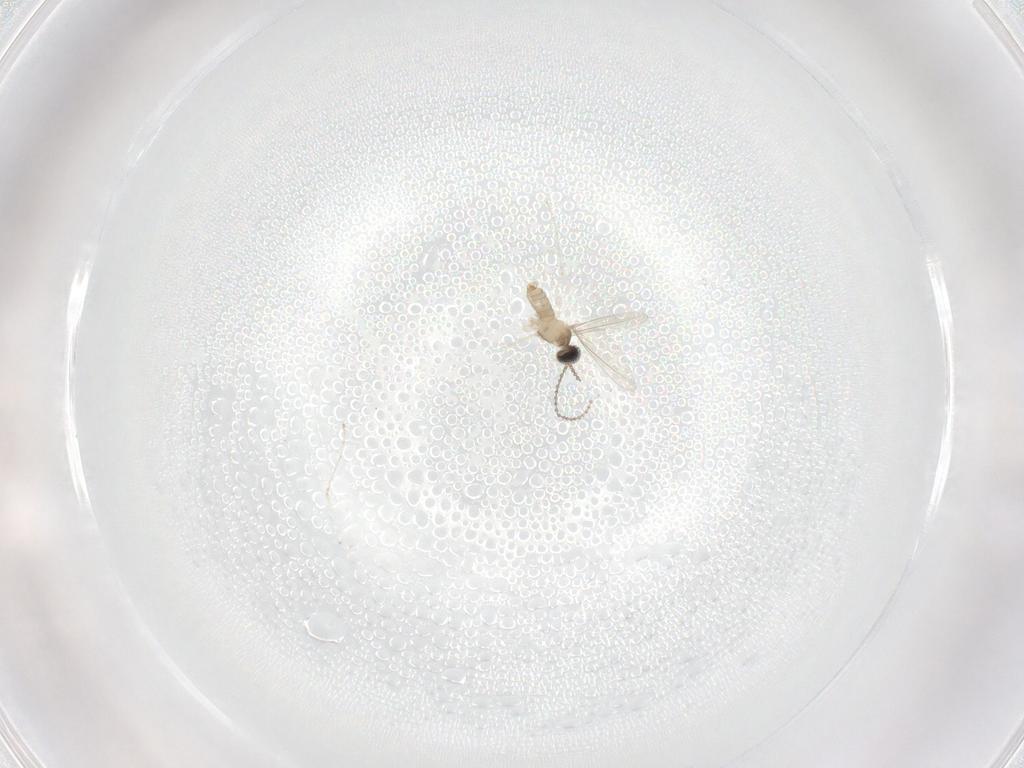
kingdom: Animalia
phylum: Arthropoda
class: Insecta
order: Diptera
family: Cecidomyiidae
